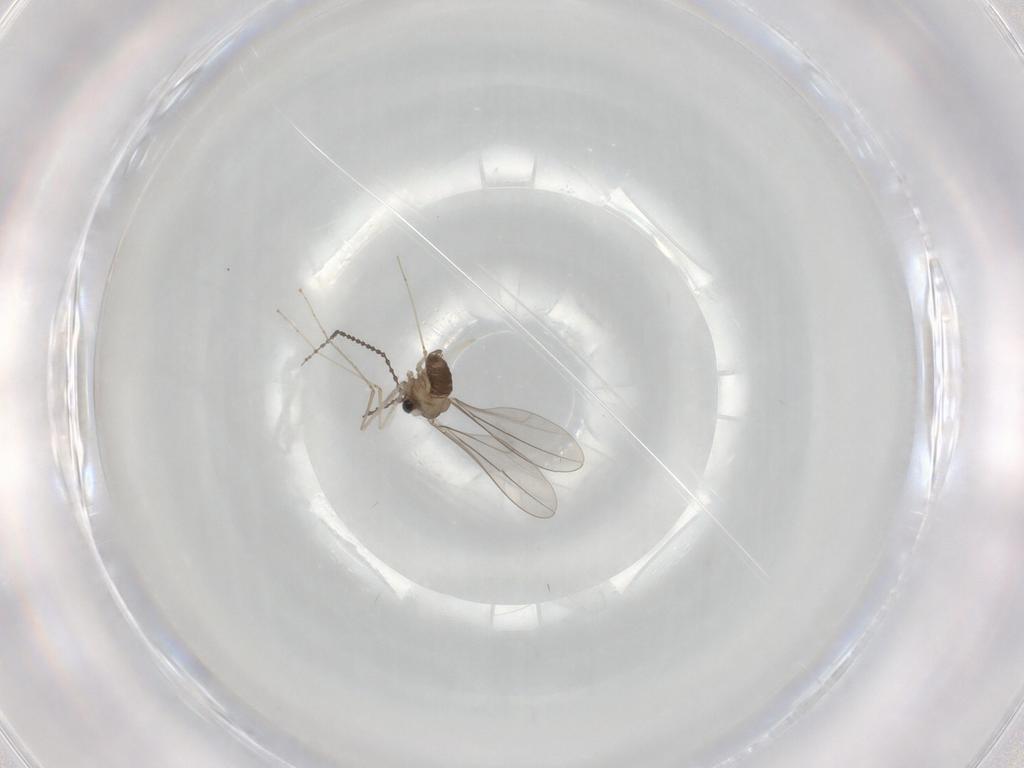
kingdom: Animalia
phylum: Arthropoda
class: Insecta
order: Diptera
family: Cecidomyiidae
